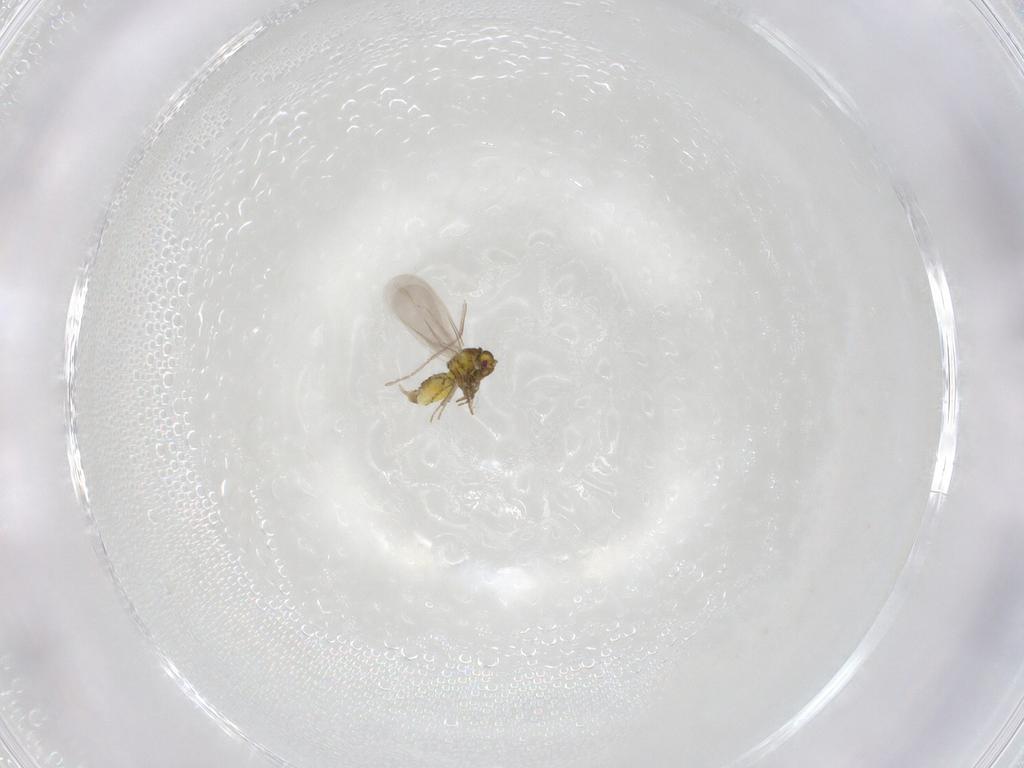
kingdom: Animalia
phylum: Arthropoda
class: Insecta
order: Hemiptera
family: Aleyrodidae
